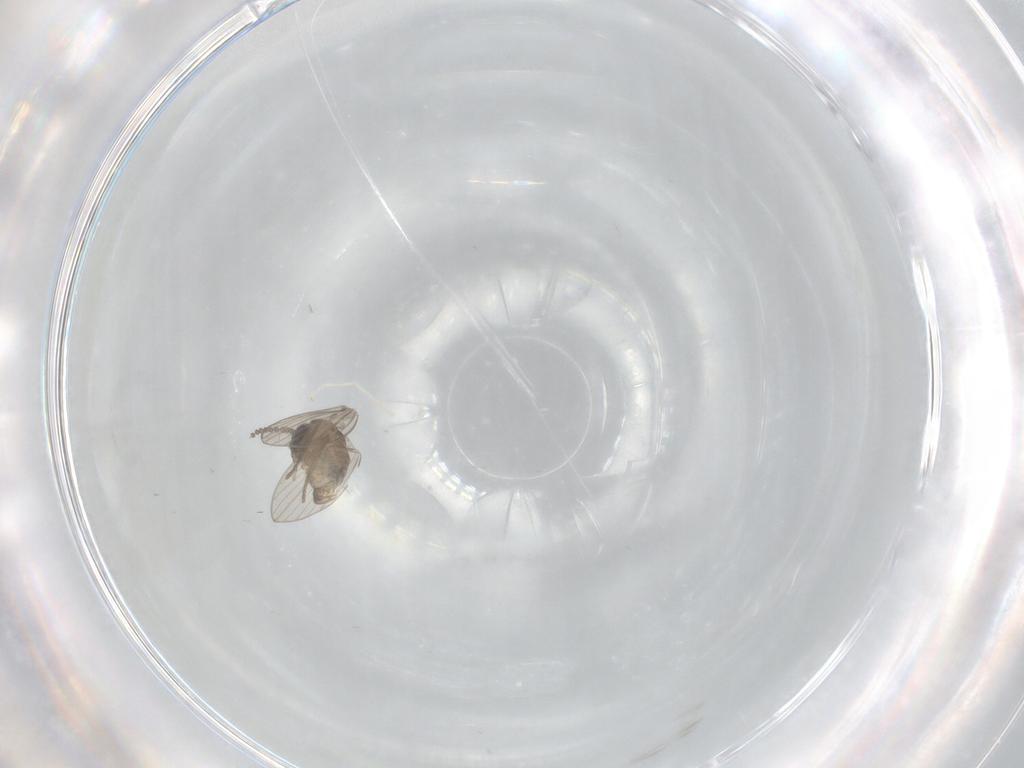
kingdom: Animalia
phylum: Arthropoda
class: Insecta
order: Diptera
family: Psychodidae
